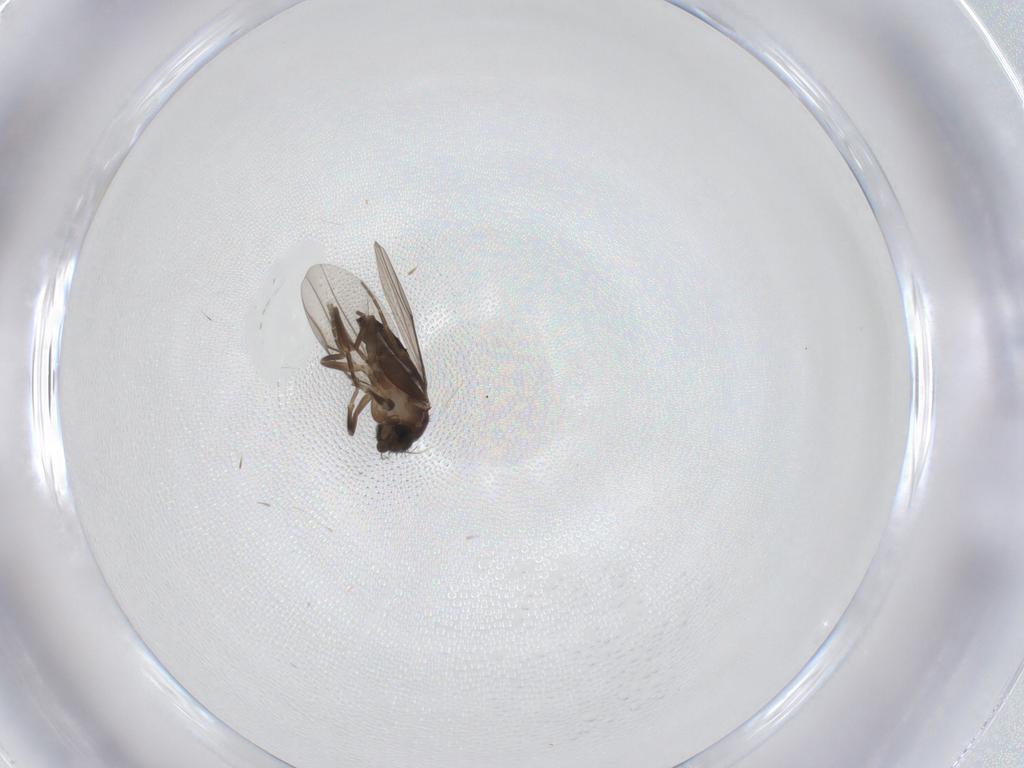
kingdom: Animalia
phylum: Arthropoda
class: Insecta
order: Diptera
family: Phoridae
